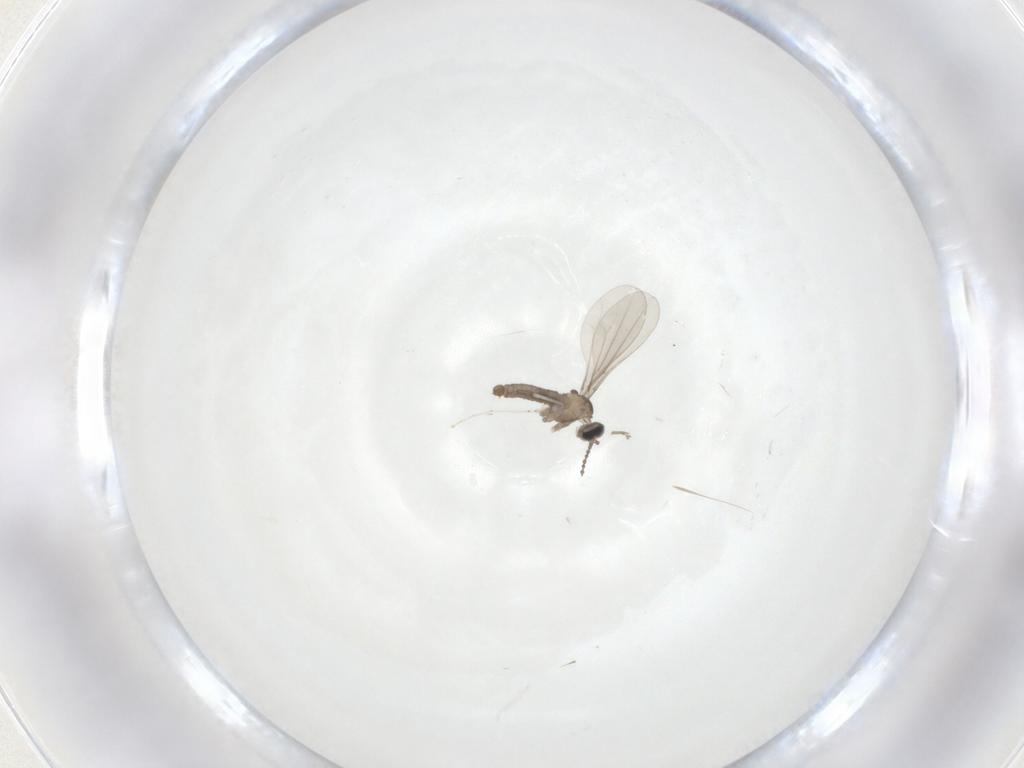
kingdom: Animalia
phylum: Arthropoda
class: Insecta
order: Diptera
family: Cecidomyiidae
